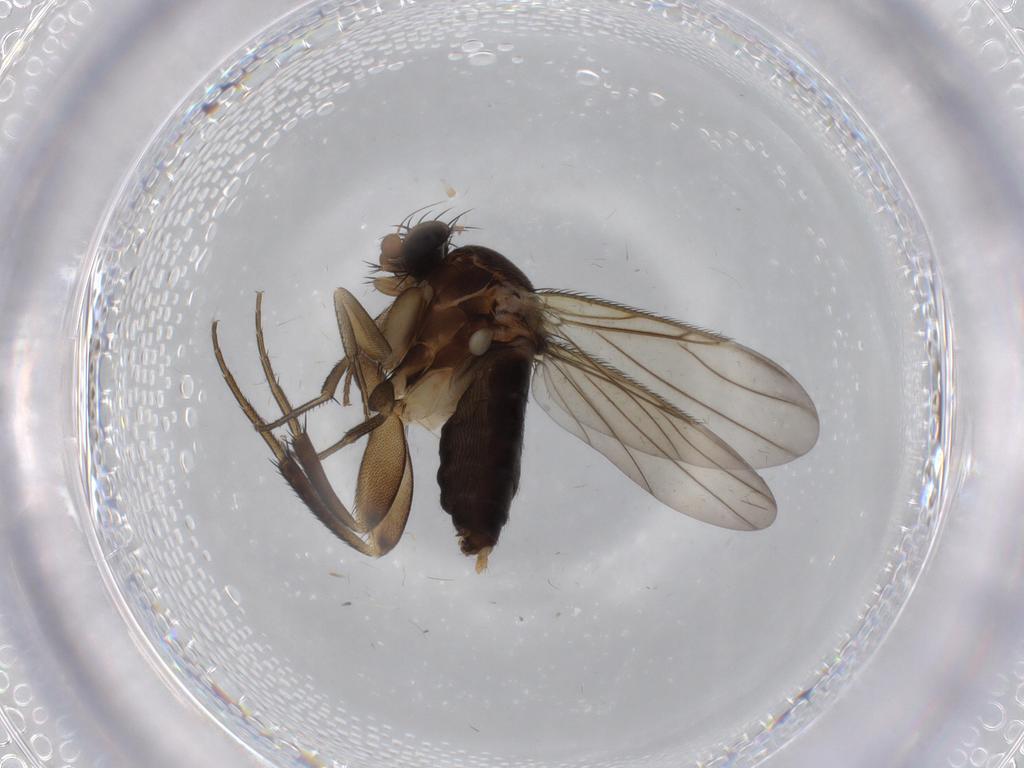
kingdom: Animalia
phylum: Arthropoda
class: Insecta
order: Diptera
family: Phoridae
